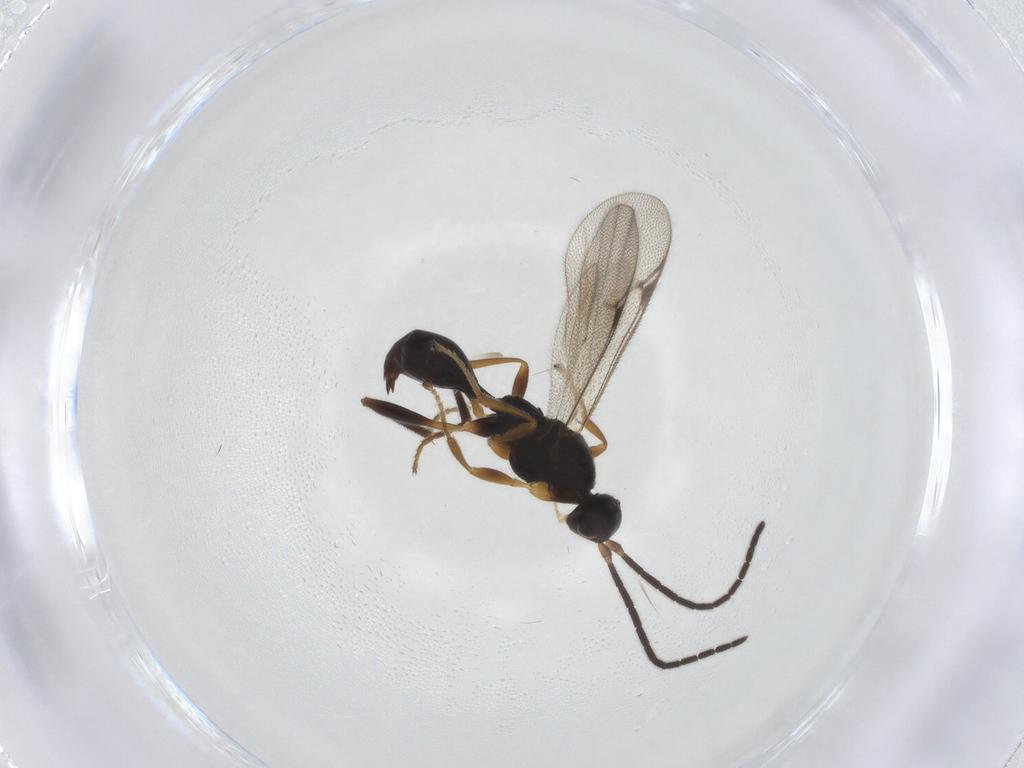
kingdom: Animalia
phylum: Arthropoda
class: Insecta
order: Hymenoptera
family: Proctotrupidae
